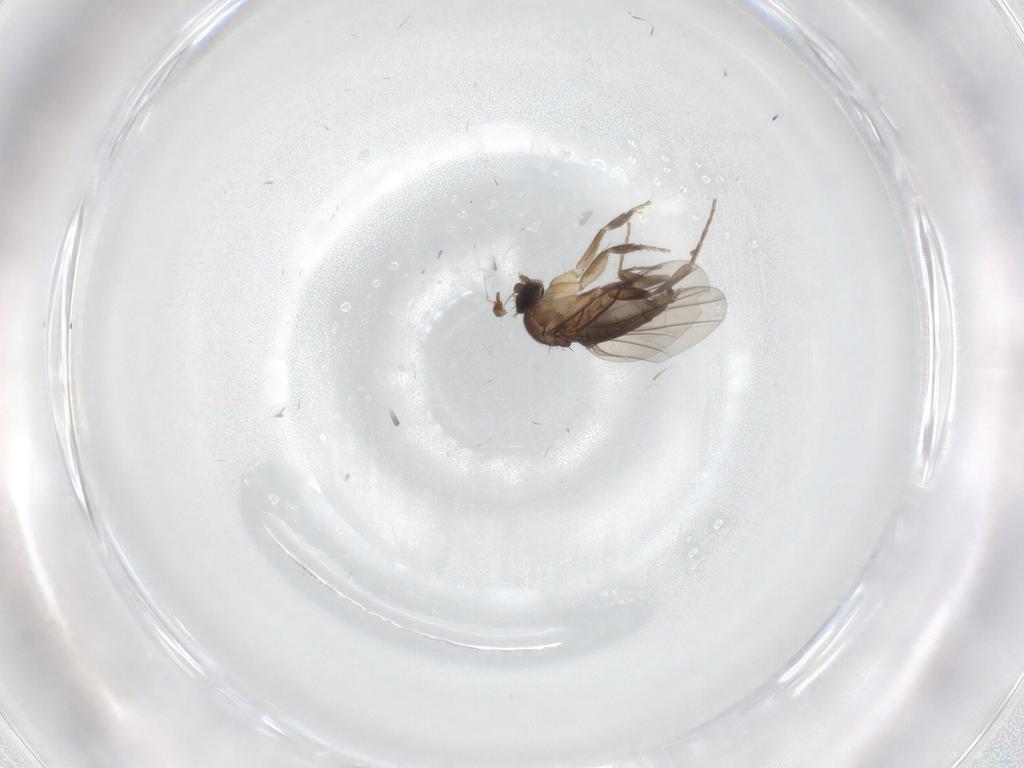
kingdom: Animalia
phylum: Arthropoda
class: Insecta
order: Diptera
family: Phoridae
